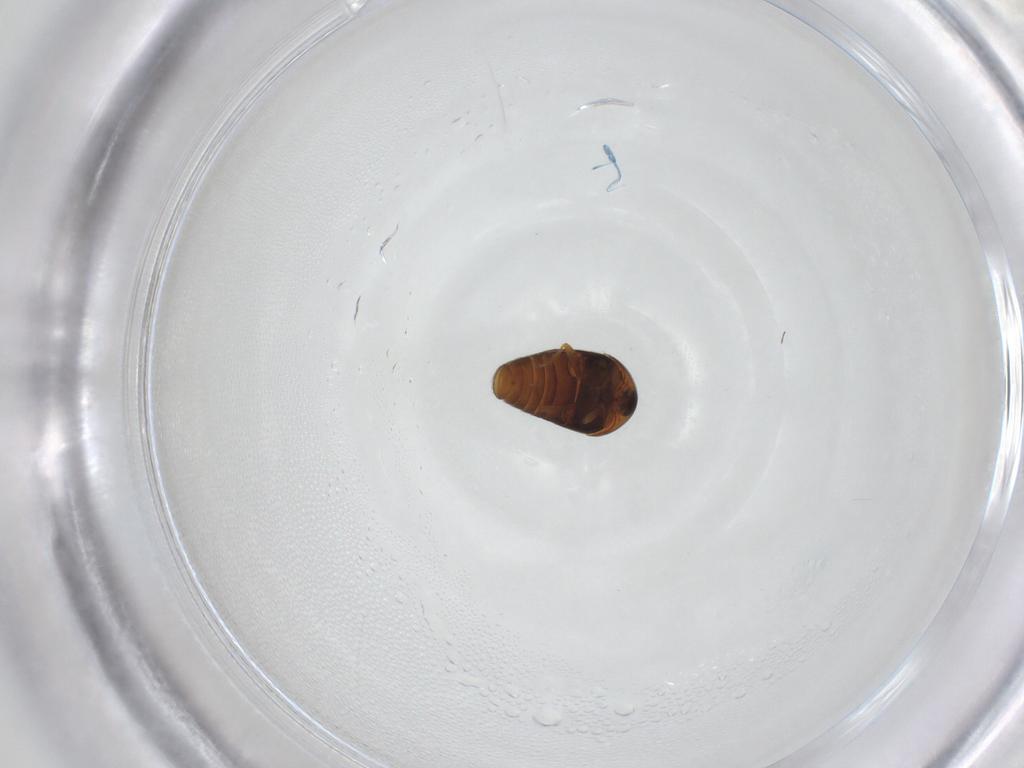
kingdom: Animalia
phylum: Arthropoda
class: Insecta
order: Coleoptera
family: Corylophidae
